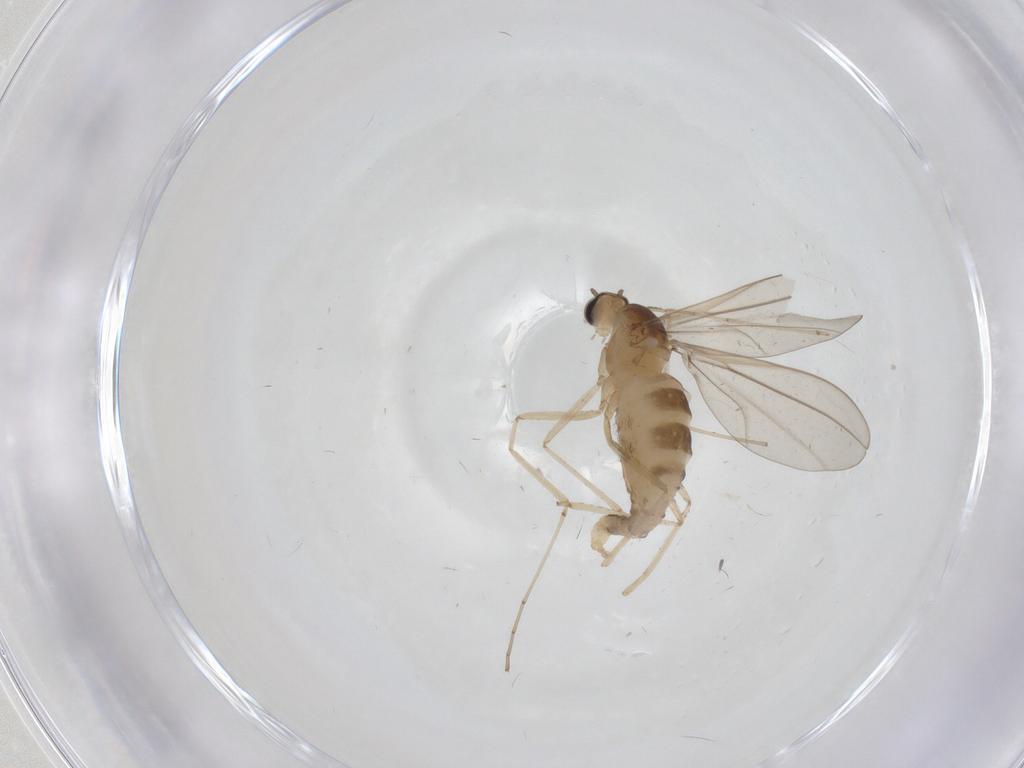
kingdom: Animalia
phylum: Arthropoda
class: Insecta
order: Diptera
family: Cecidomyiidae
